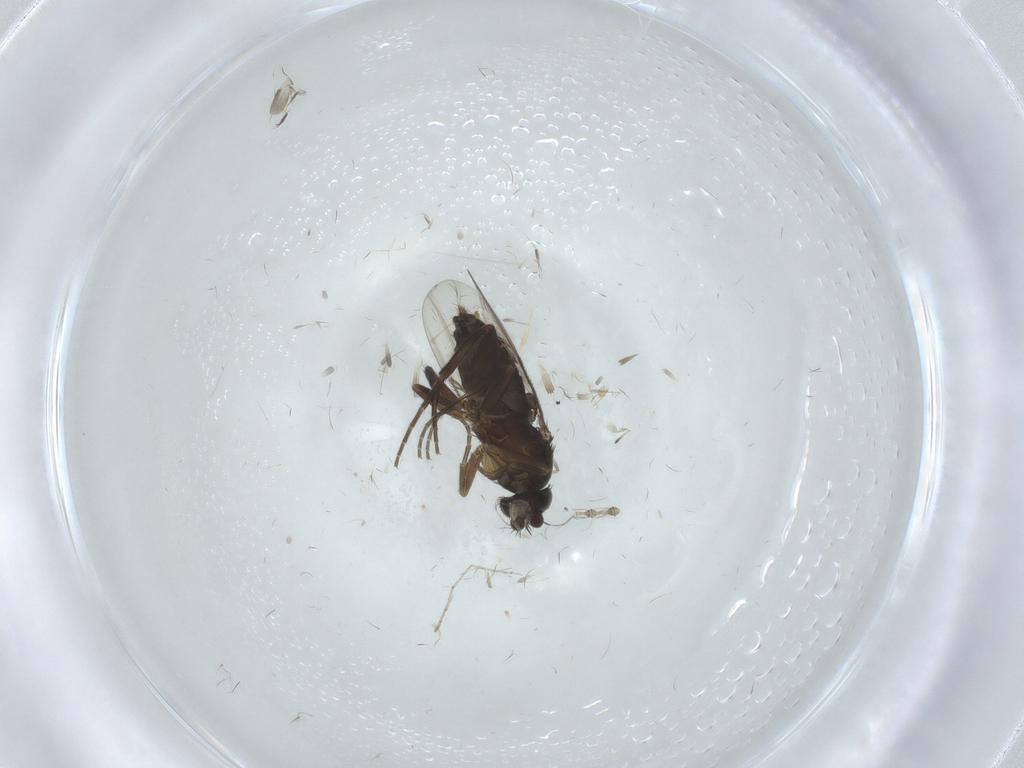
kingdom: Animalia
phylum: Arthropoda
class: Insecta
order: Diptera
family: Phoridae
